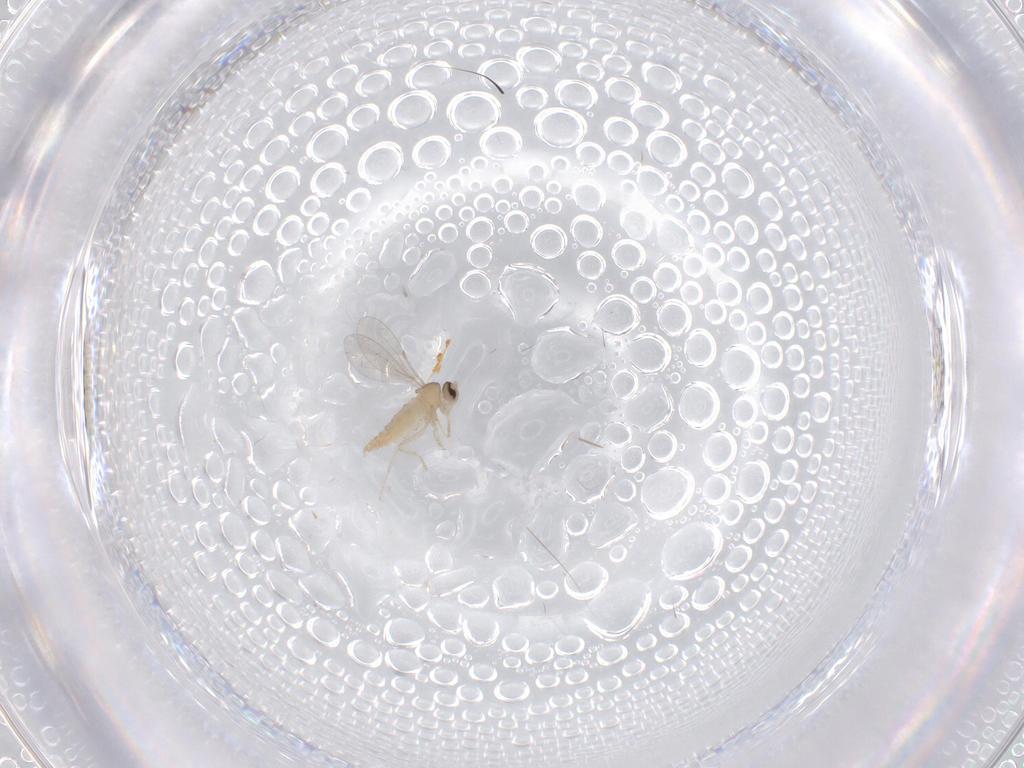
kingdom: Animalia
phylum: Arthropoda
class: Insecta
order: Diptera
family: Cecidomyiidae
